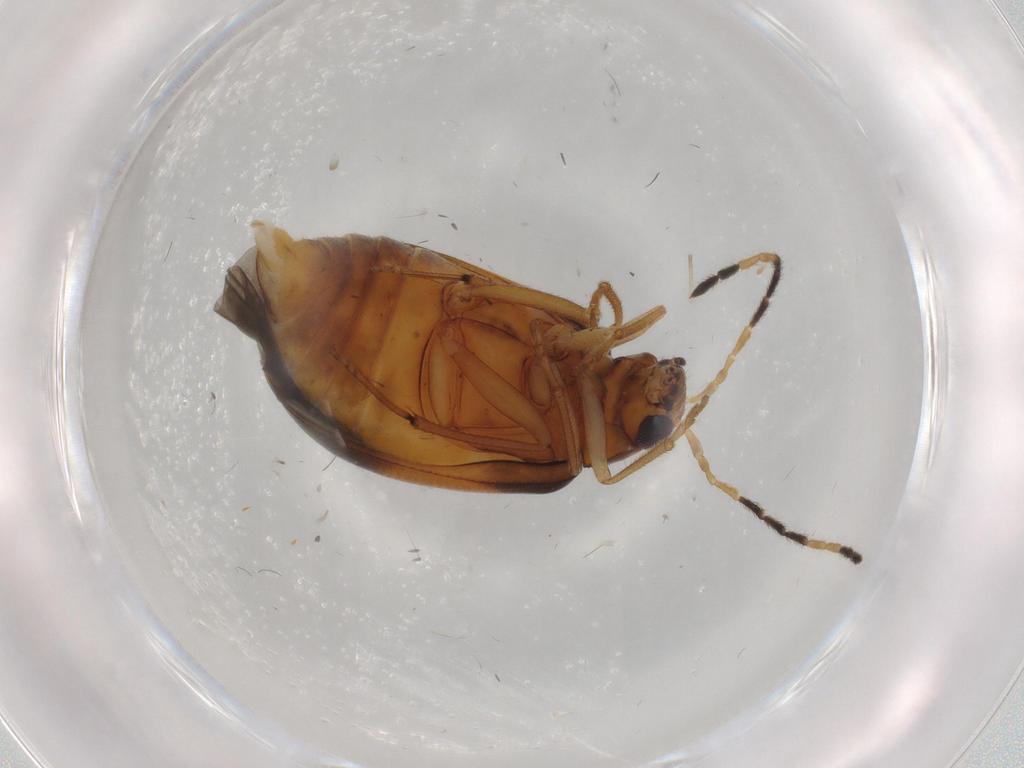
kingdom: Animalia
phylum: Arthropoda
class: Insecta
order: Coleoptera
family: Chrysomelidae
